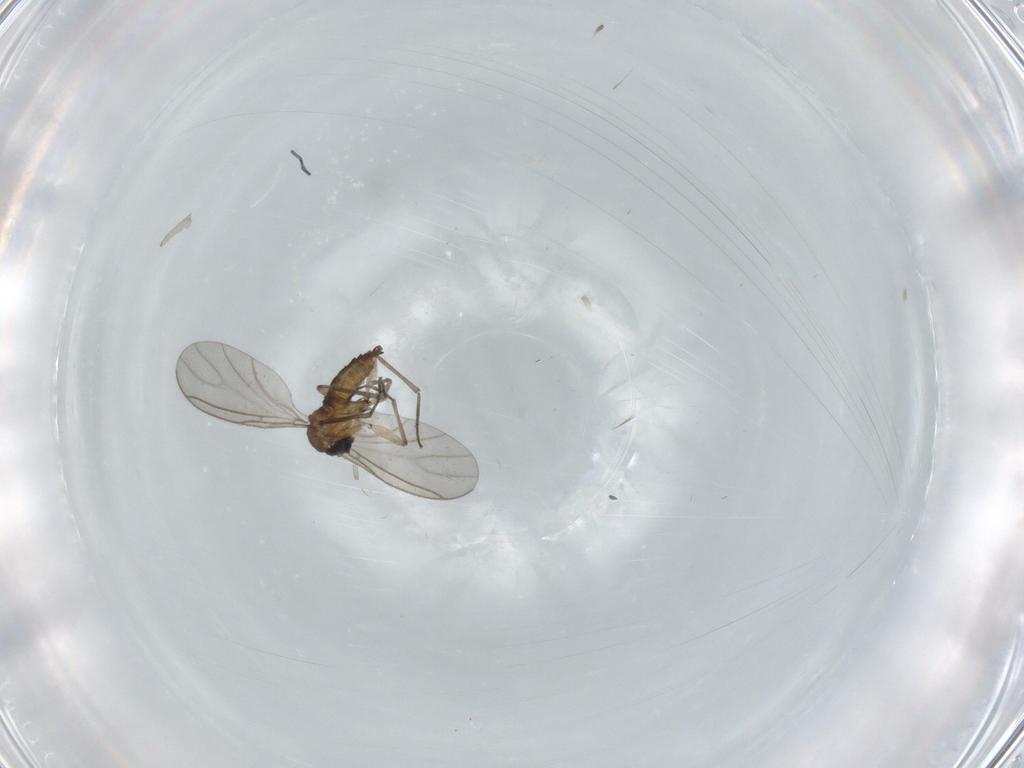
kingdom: Animalia
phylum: Arthropoda
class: Insecta
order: Diptera
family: Sciaridae
